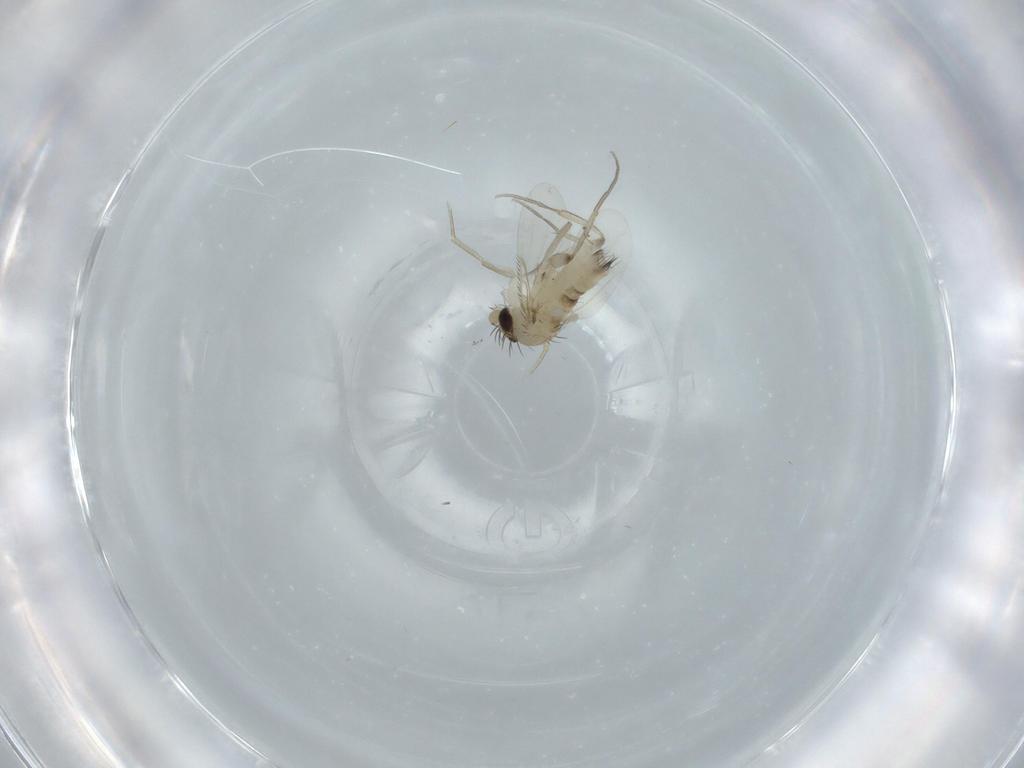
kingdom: Animalia
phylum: Arthropoda
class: Insecta
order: Diptera
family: Phoridae
